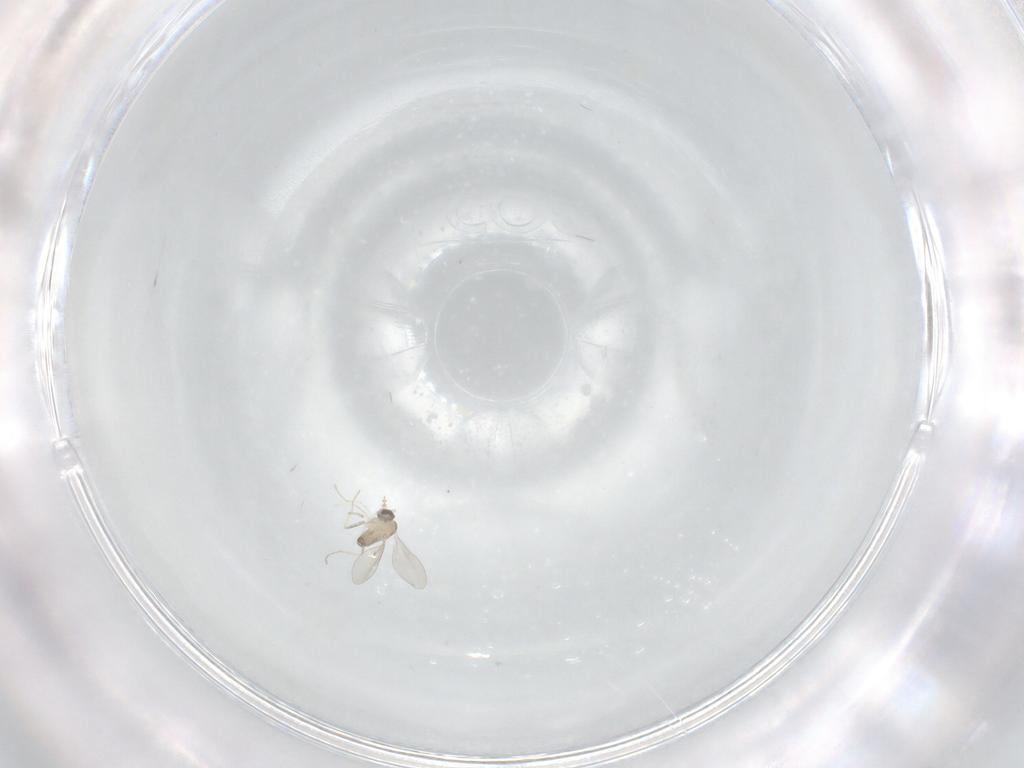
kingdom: Animalia
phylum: Arthropoda
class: Insecta
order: Diptera
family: Cecidomyiidae
